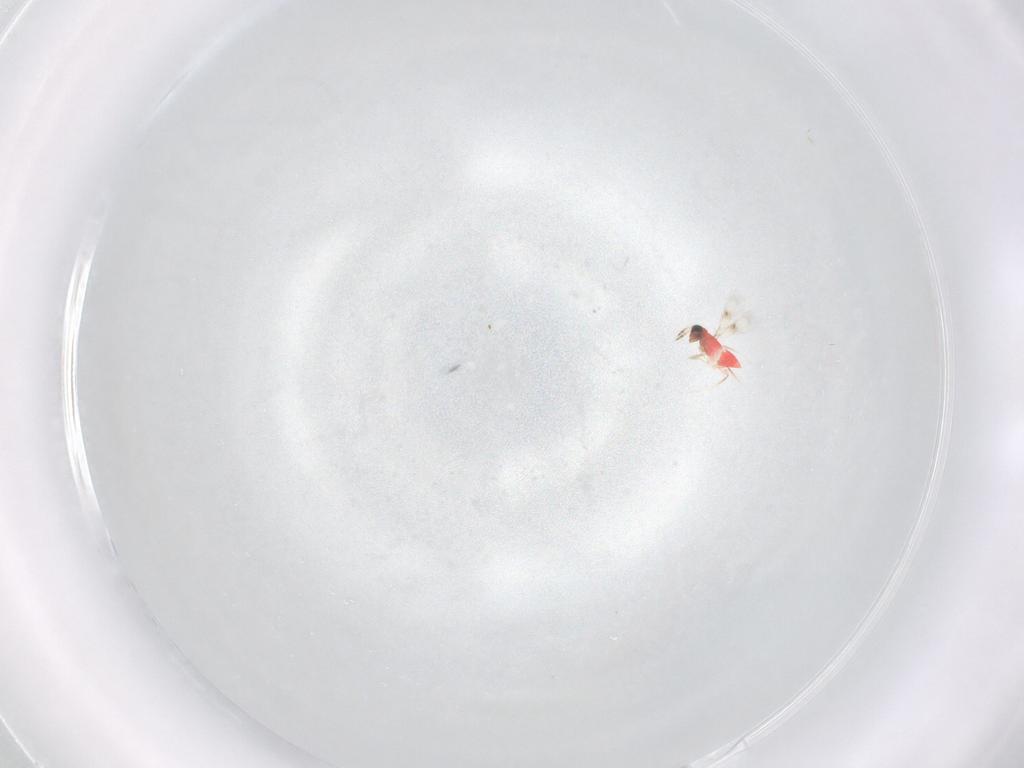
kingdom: Animalia
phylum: Arthropoda
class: Insecta
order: Hymenoptera
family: Trichogrammatidae
